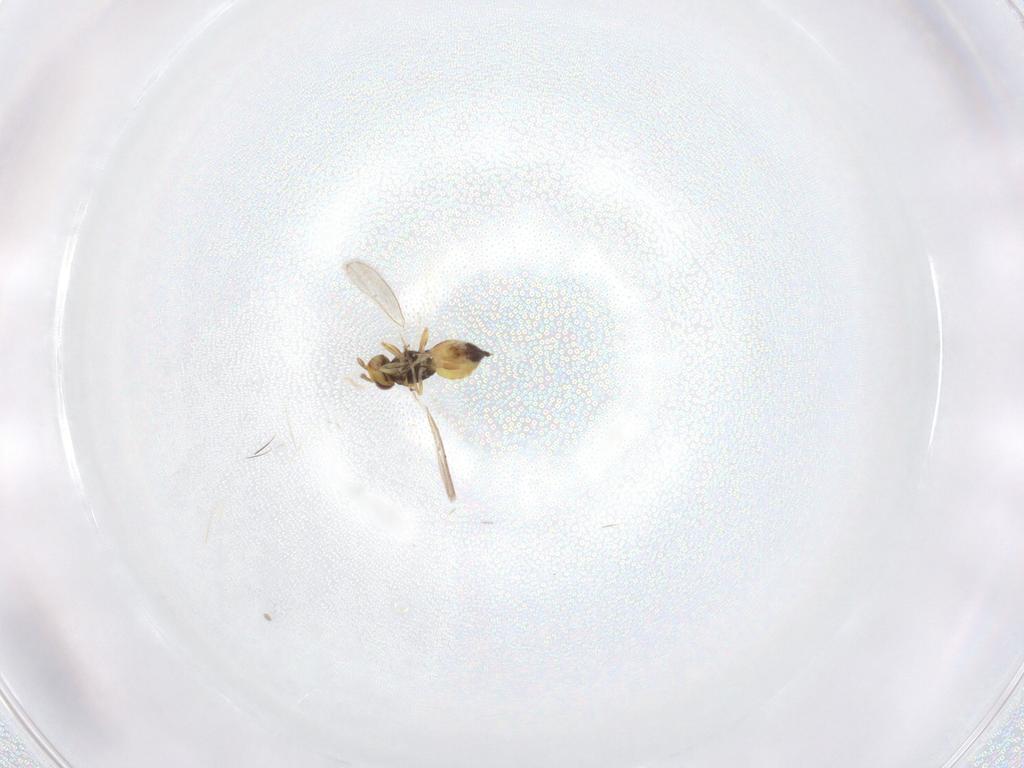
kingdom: Animalia
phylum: Arthropoda
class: Insecta
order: Hymenoptera
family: Eulophidae
